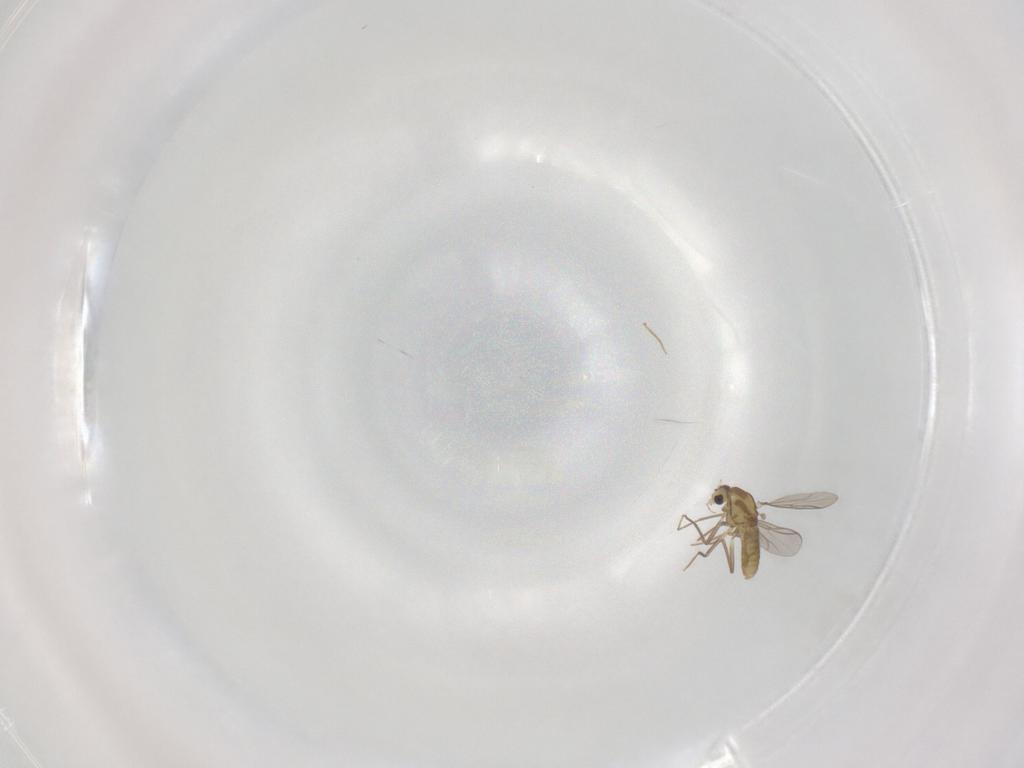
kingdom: Animalia
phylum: Arthropoda
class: Insecta
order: Diptera
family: Chironomidae
